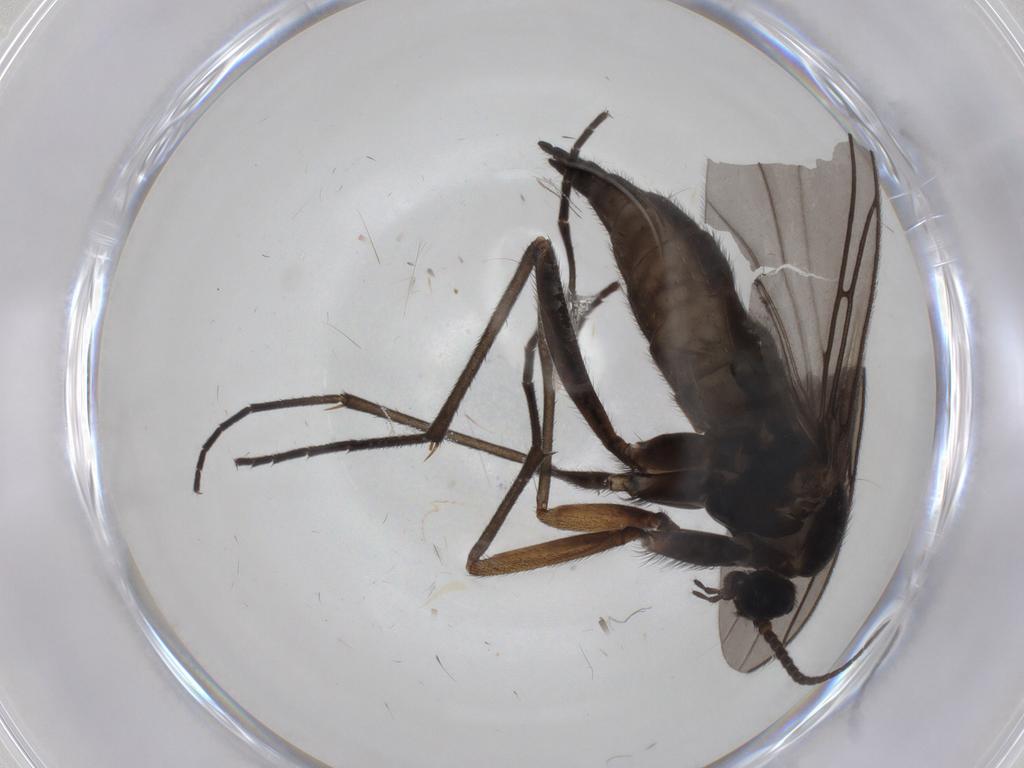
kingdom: Animalia
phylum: Arthropoda
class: Insecta
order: Diptera
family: Sciaridae
